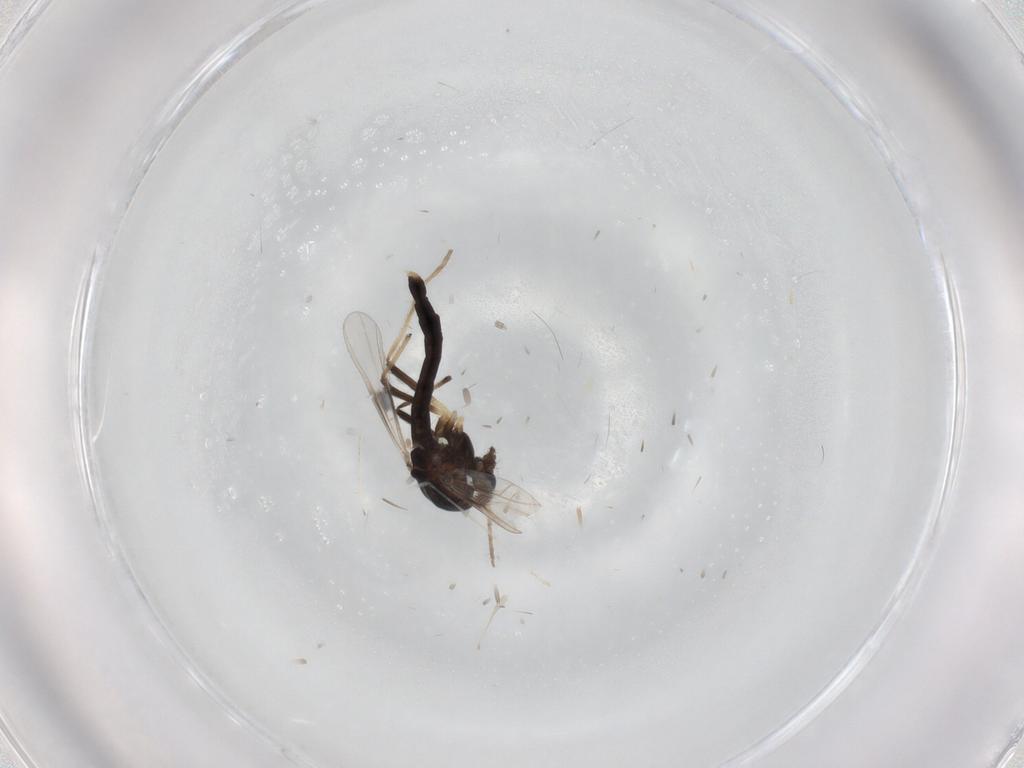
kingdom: Animalia
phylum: Arthropoda
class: Insecta
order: Diptera
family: Chironomidae
